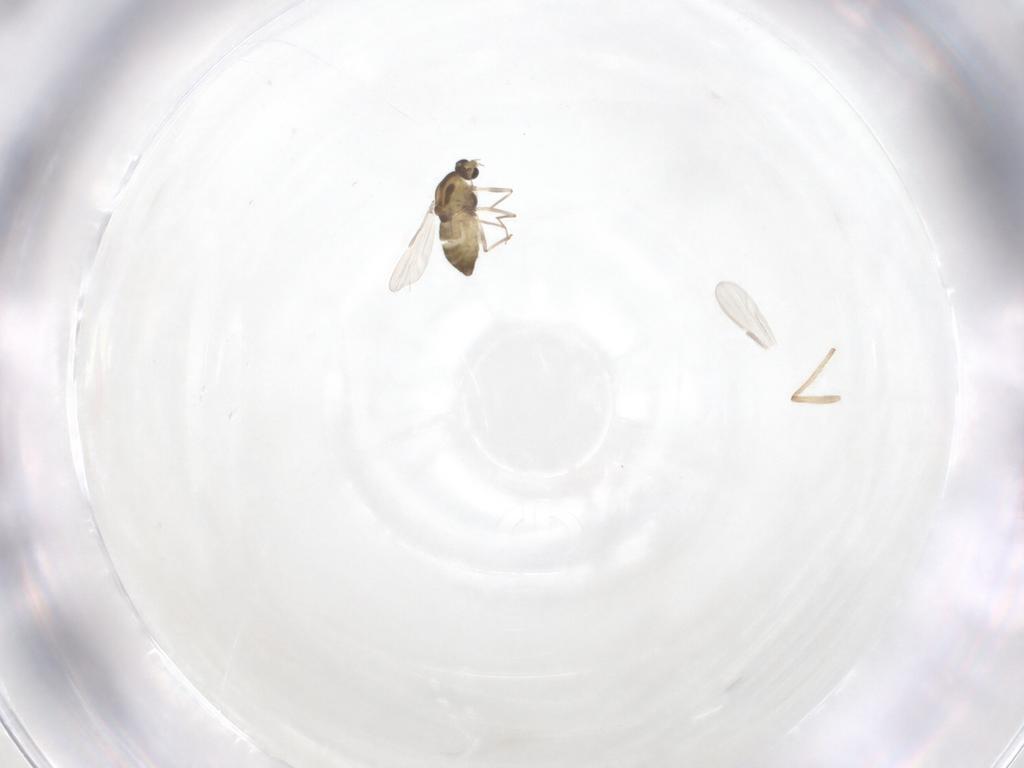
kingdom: Animalia
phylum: Arthropoda
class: Insecta
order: Diptera
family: Chironomidae
